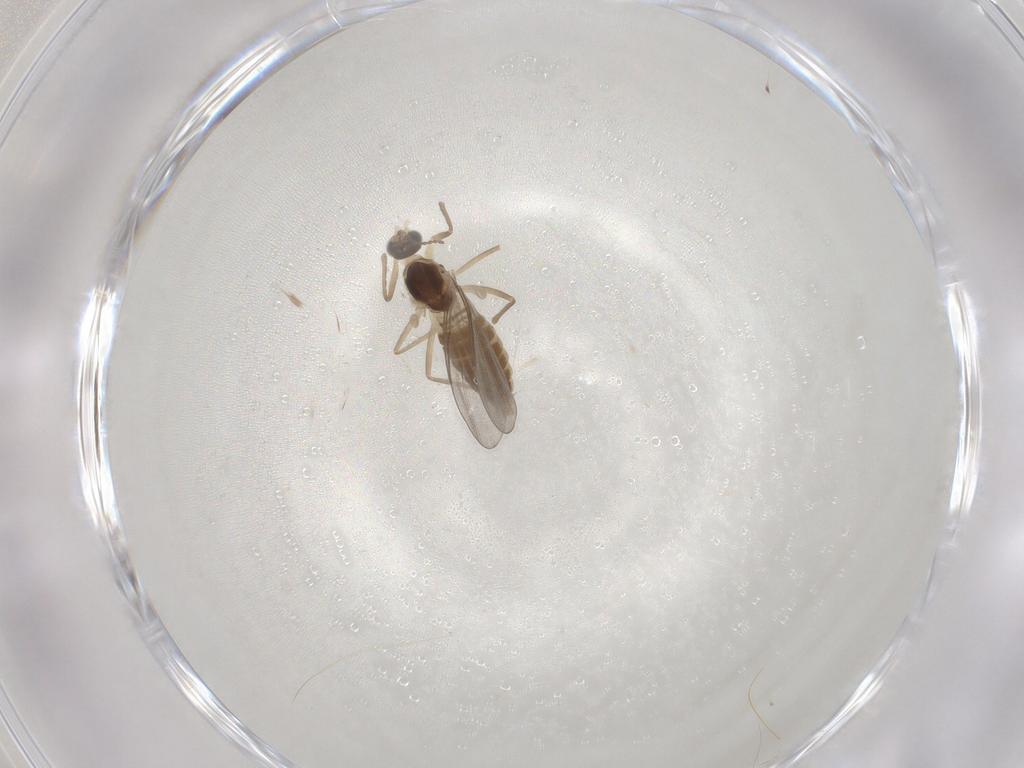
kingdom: Animalia
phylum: Arthropoda
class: Insecta
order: Diptera
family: Cecidomyiidae
